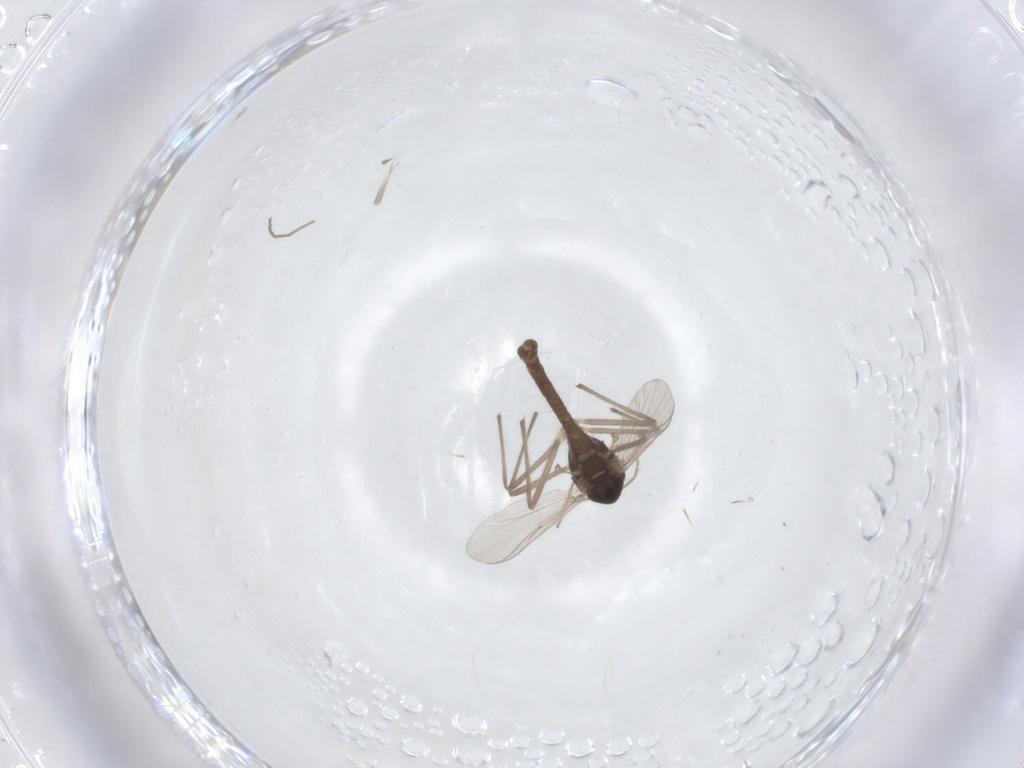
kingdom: Animalia
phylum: Arthropoda
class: Insecta
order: Diptera
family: Chironomidae
